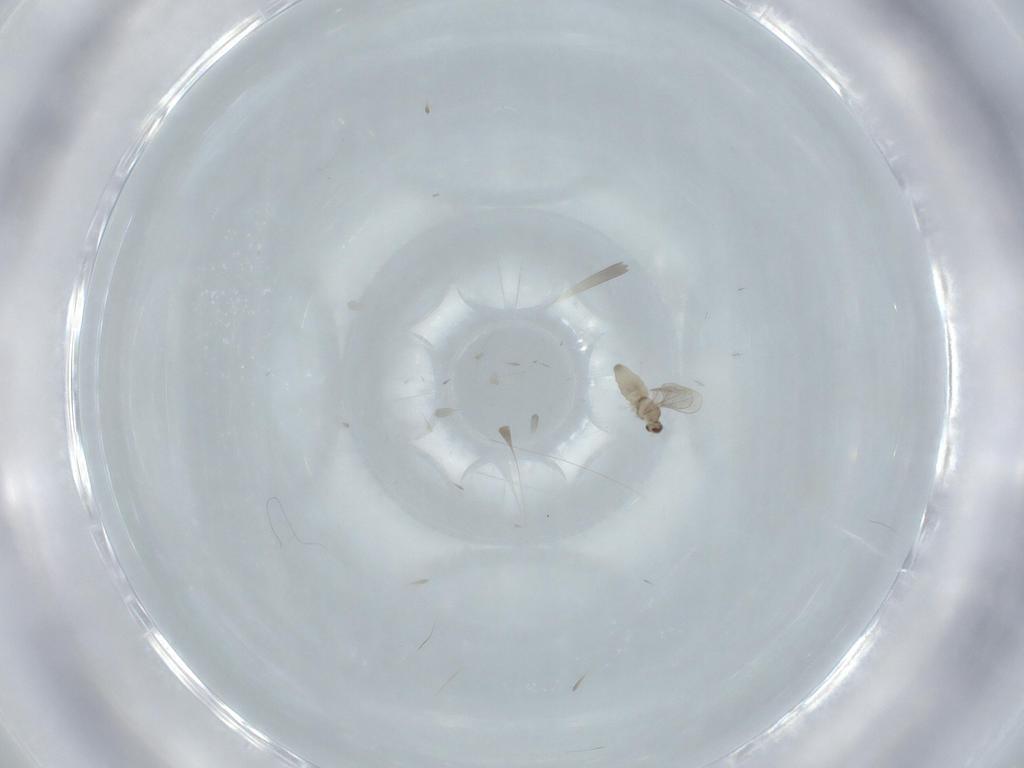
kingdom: Animalia
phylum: Arthropoda
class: Insecta
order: Diptera
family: Cecidomyiidae
